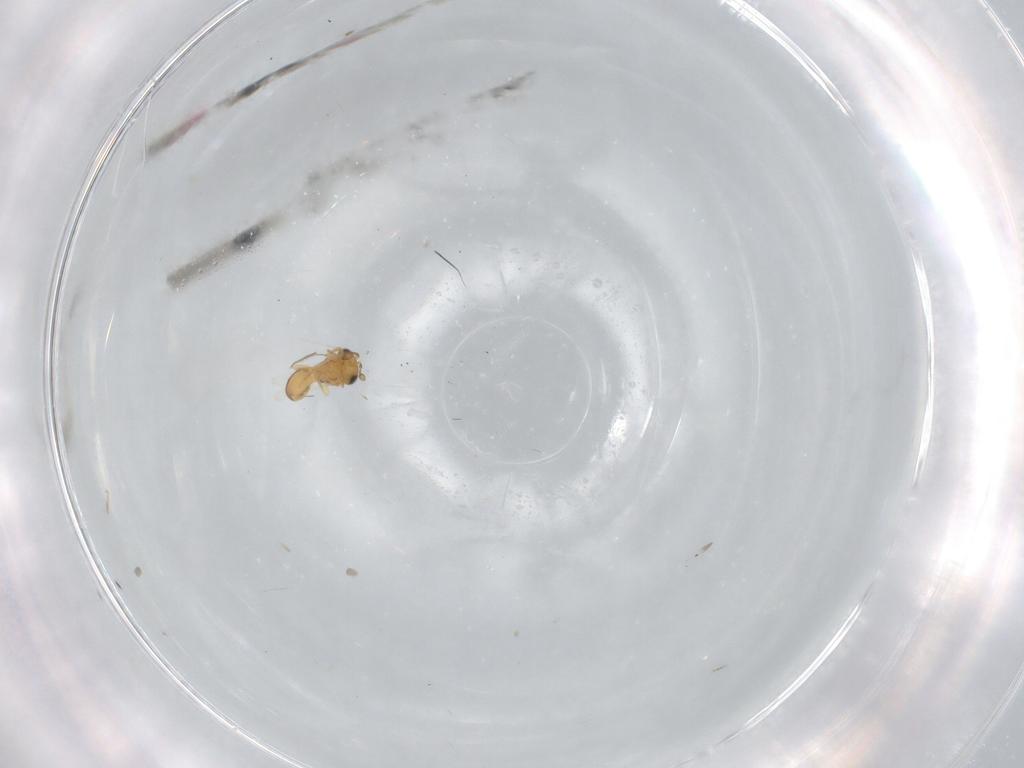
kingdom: Animalia
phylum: Arthropoda
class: Insecta
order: Hymenoptera
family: Scelionidae
